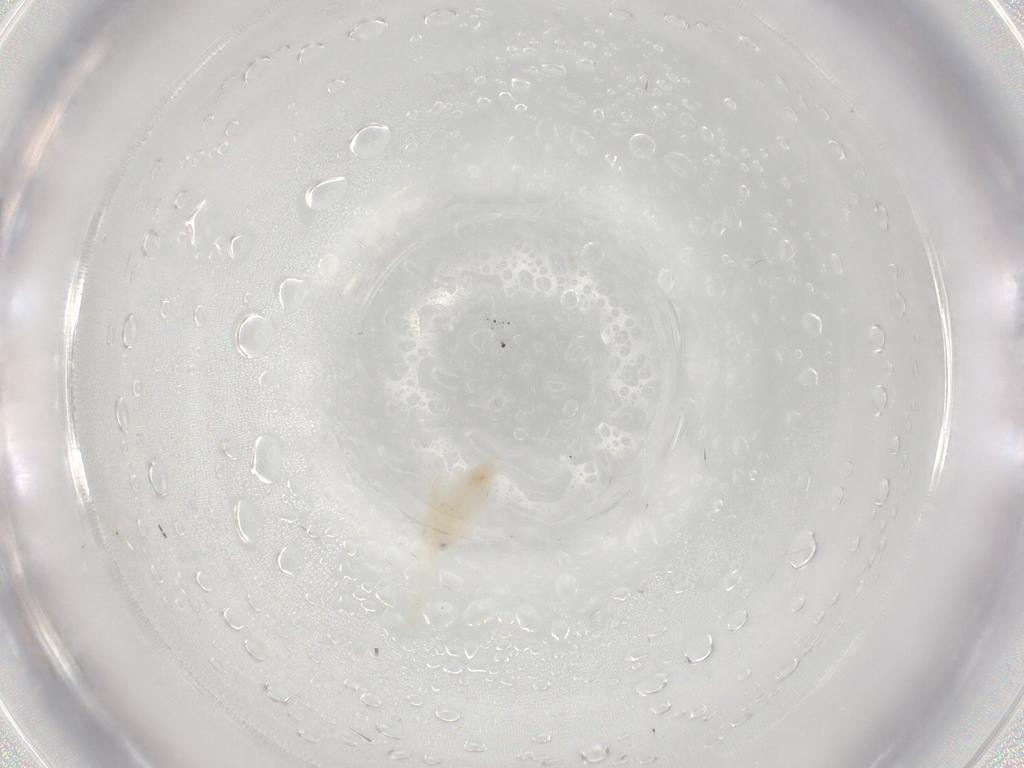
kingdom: Animalia
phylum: Arthropoda
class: Insecta
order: Hemiptera
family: Aleyrodidae
